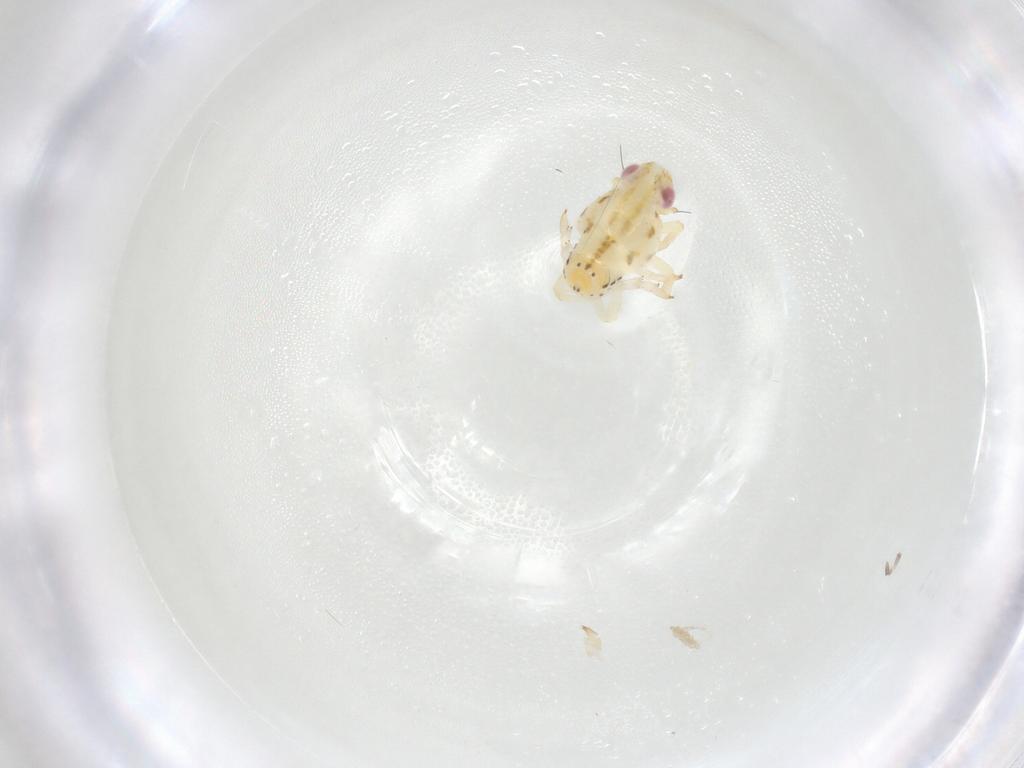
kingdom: Animalia
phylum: Arthropoda
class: Insecta
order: Hemiptera
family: Tropiduchidae
